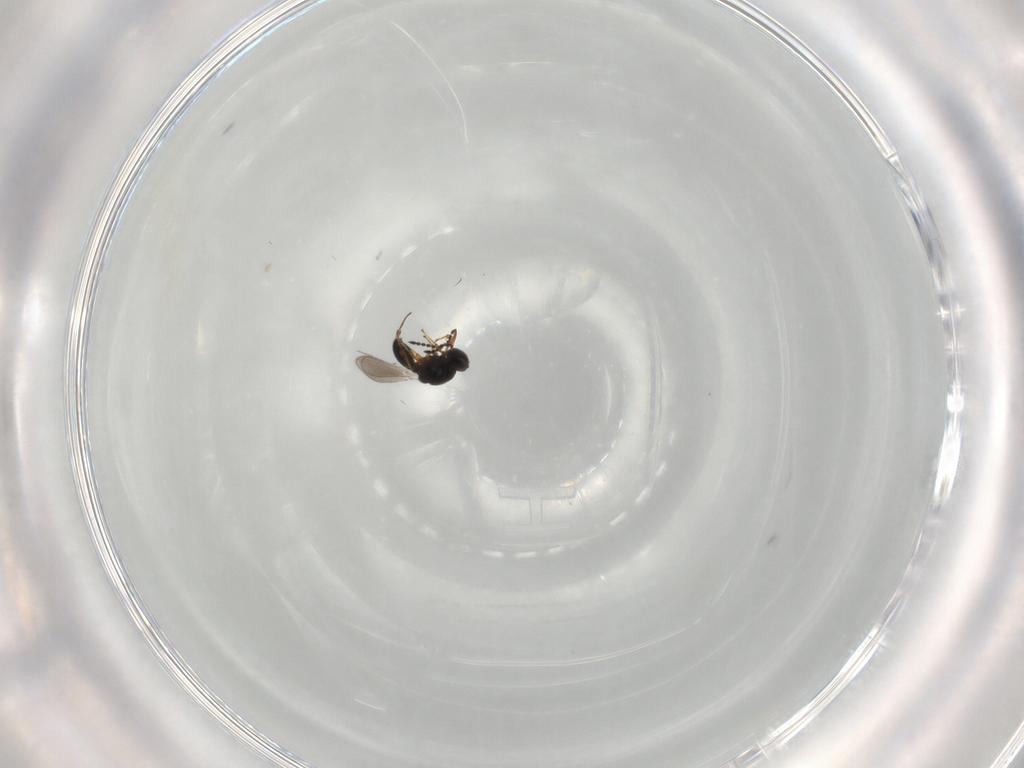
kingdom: Animalia
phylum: Arthropoda
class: Insecta
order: Hymenoptera
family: Platygastridae
